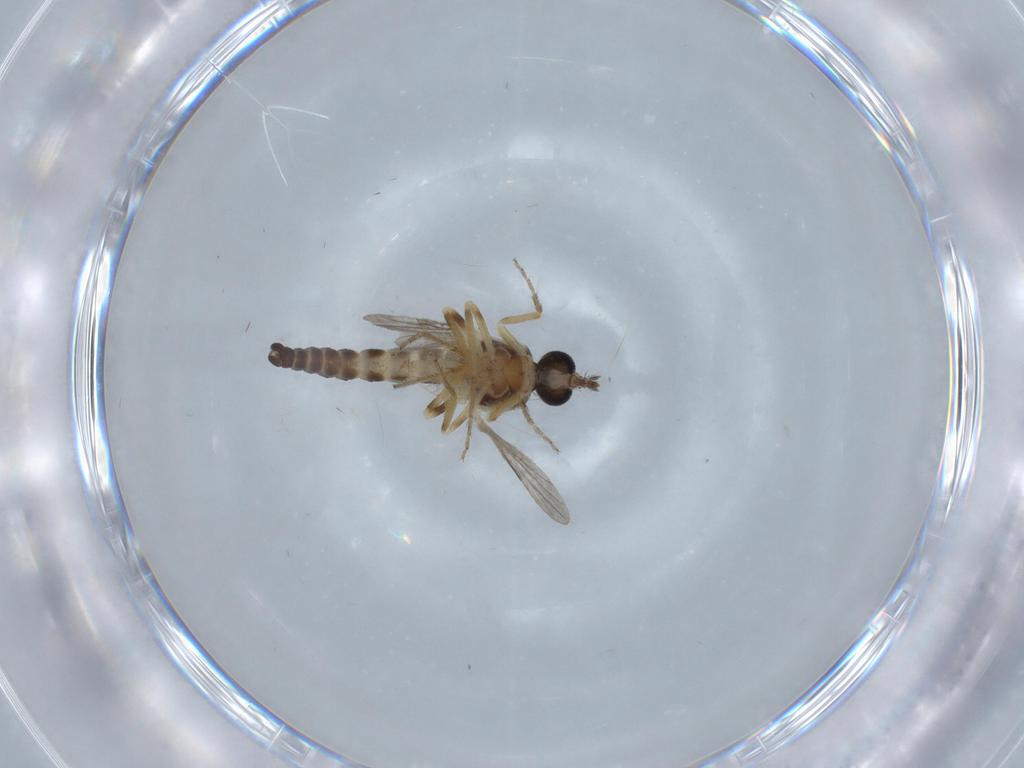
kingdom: Animalia
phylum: Arthropoda
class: Insecta
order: Diptera
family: Ceratopogonidae
